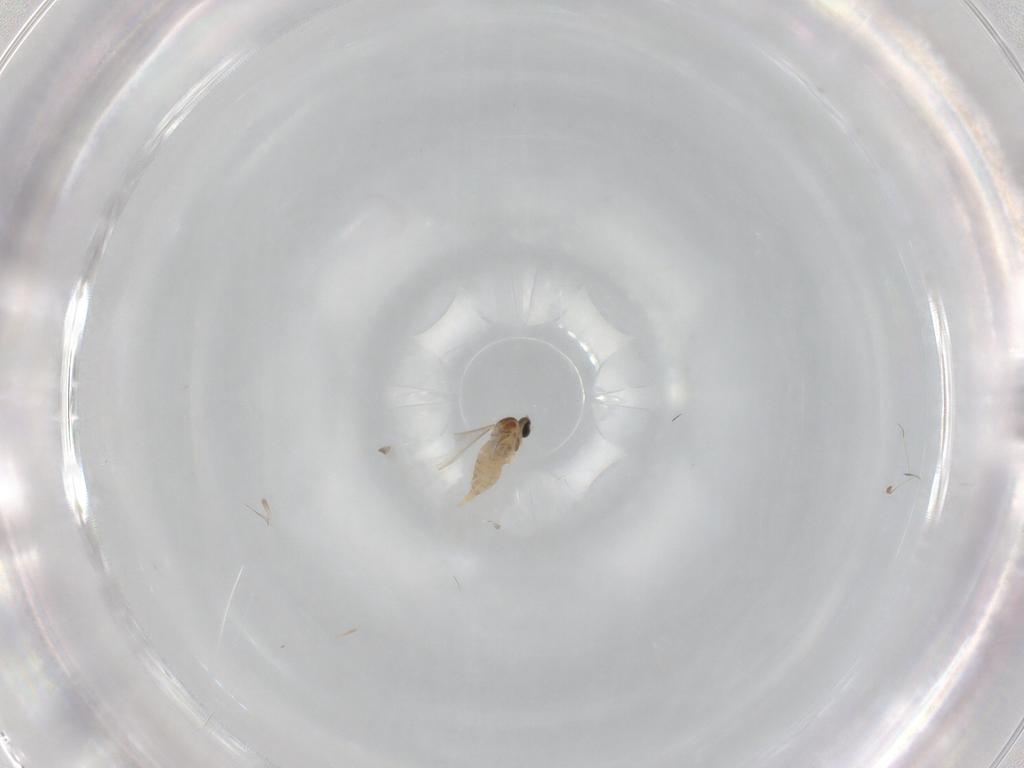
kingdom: Animalia
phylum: Arthropoda
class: Insecta
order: Diptera
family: Chironomidae
